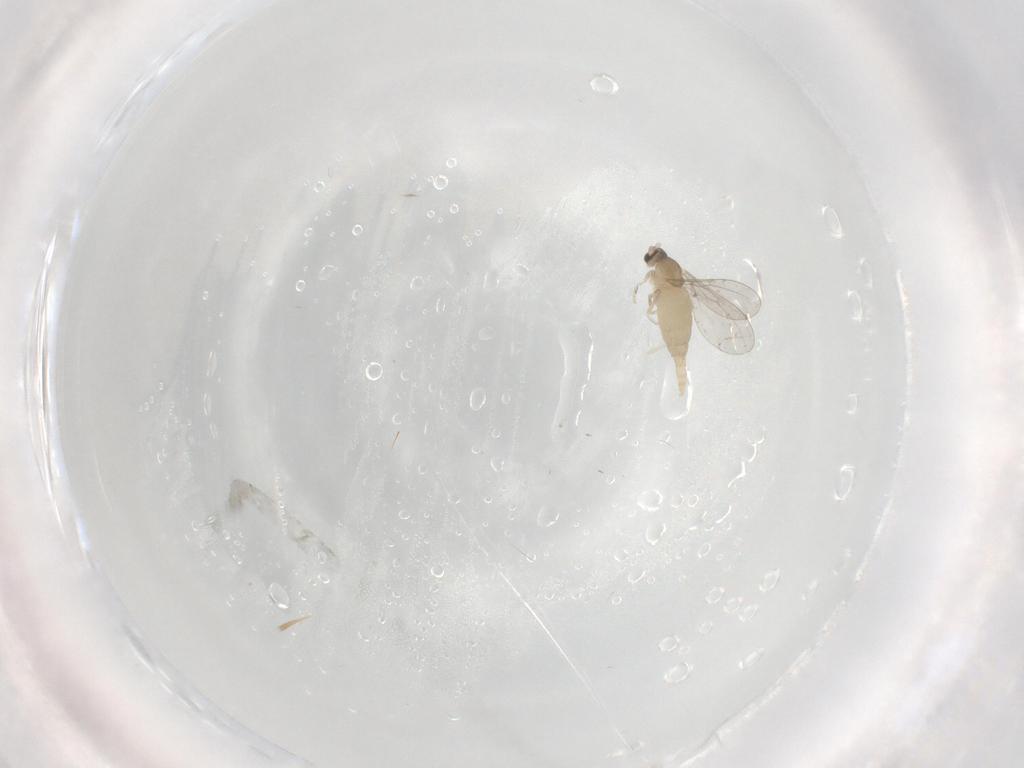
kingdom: Animalia
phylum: Arthropoda
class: Insecta
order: Diptera
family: Cecidomyiidae
